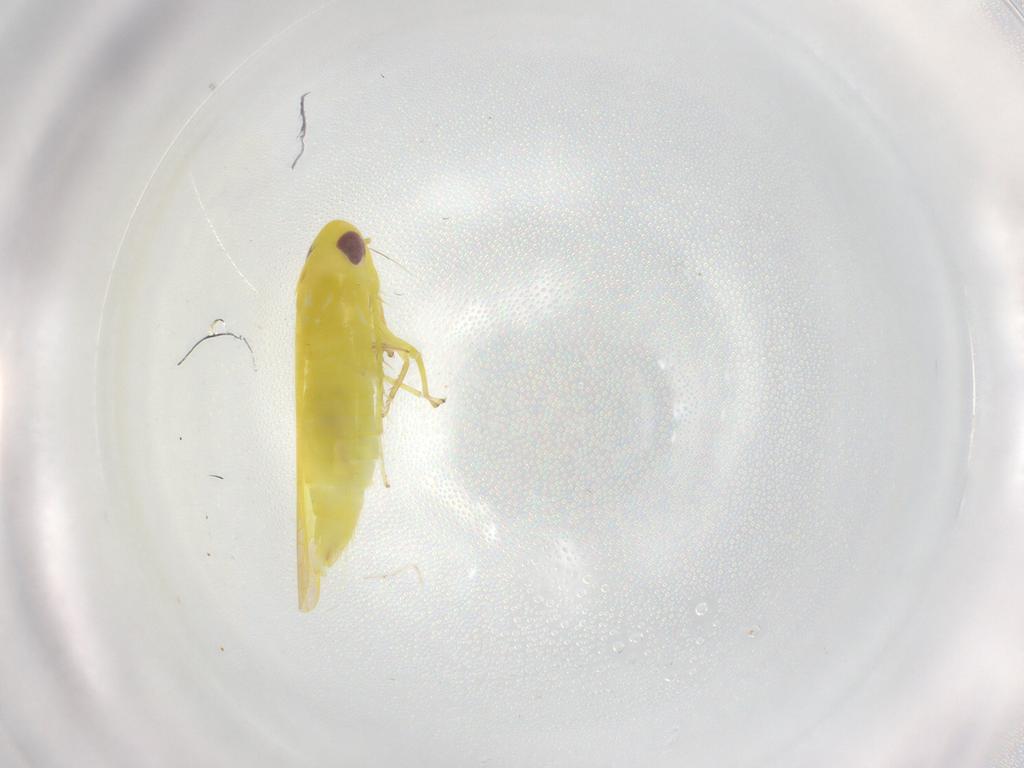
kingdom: Animalia
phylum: Arthropoda
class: Insecta
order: Hemiptera
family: Cicadellidae
